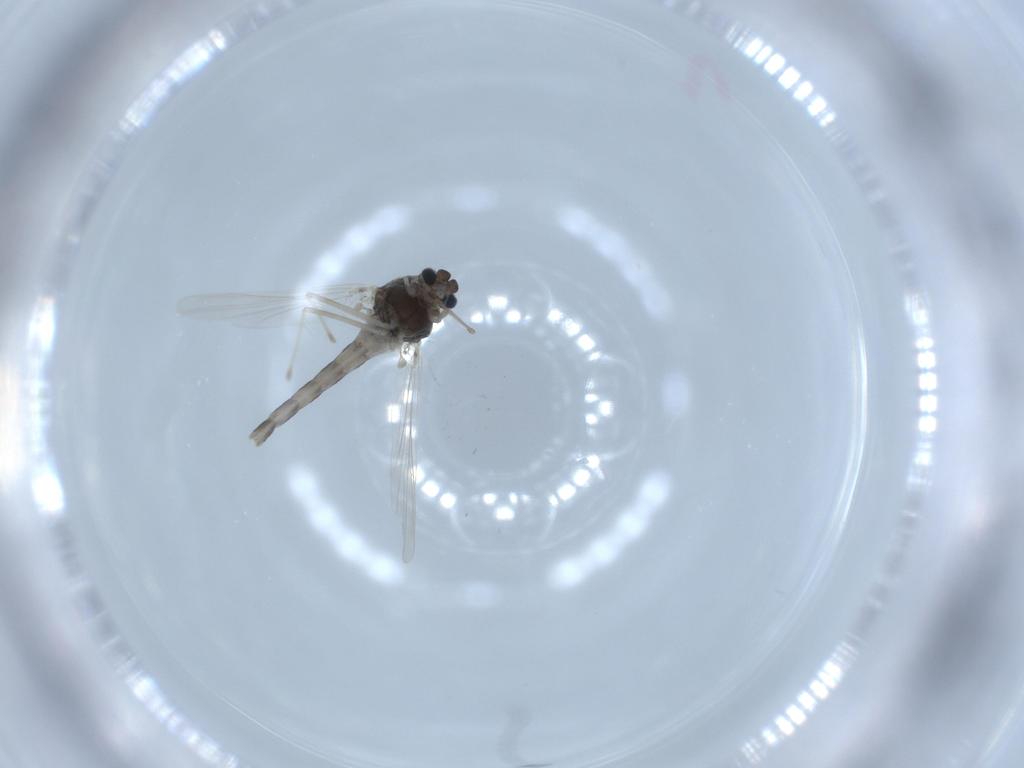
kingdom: Animalia
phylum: Arthropoda
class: Insecta
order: Diptera
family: Chironomidae
